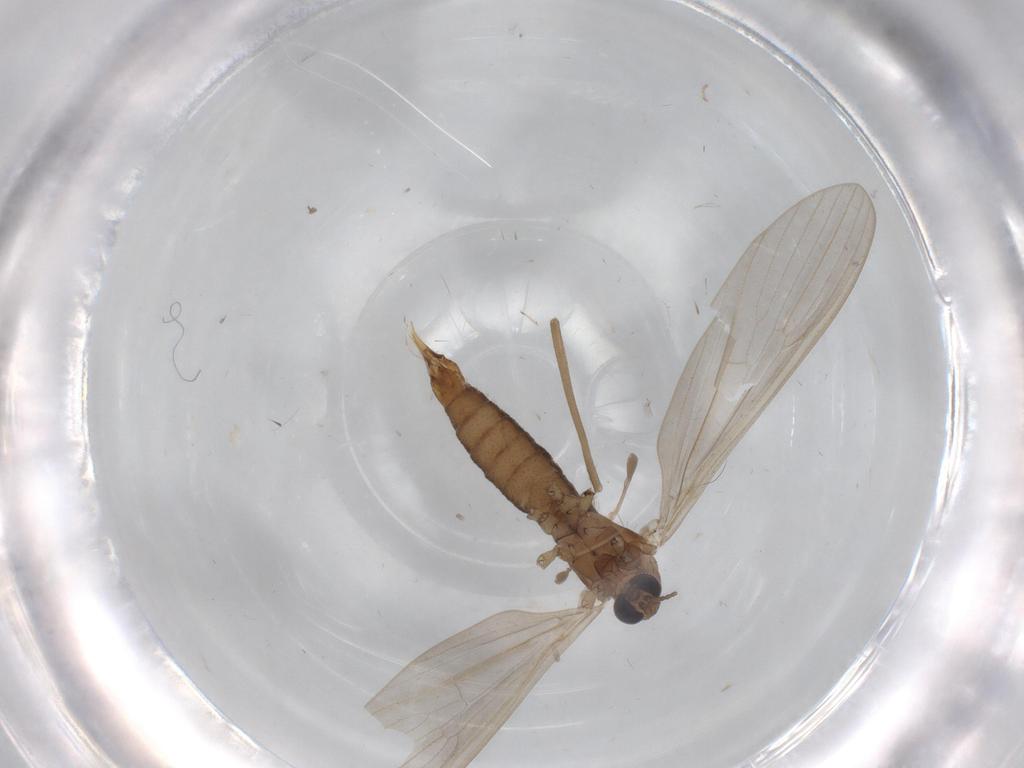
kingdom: Animalia
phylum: Arthropoda
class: Insecta
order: Diptera
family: Limoniidae
